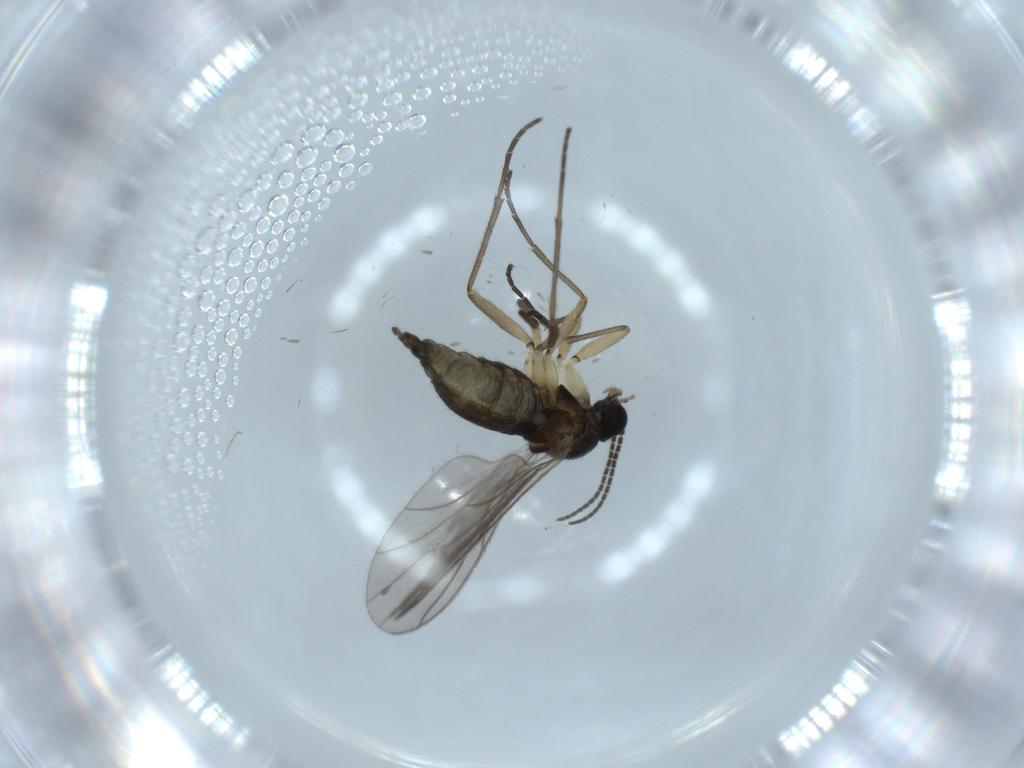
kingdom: Animalia
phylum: Arthropoda
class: Insecta
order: Diptera
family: Sciaridae
